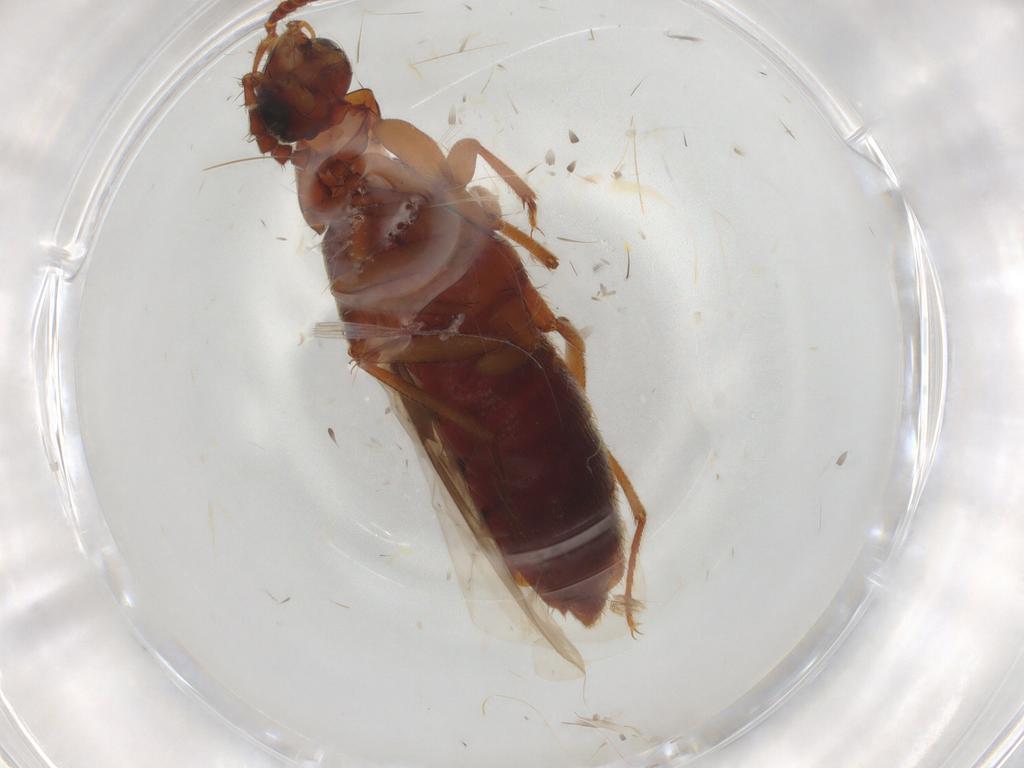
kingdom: Animalia
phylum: Arthropoda
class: Insecta
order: Coleoptera
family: Staphylinidae
